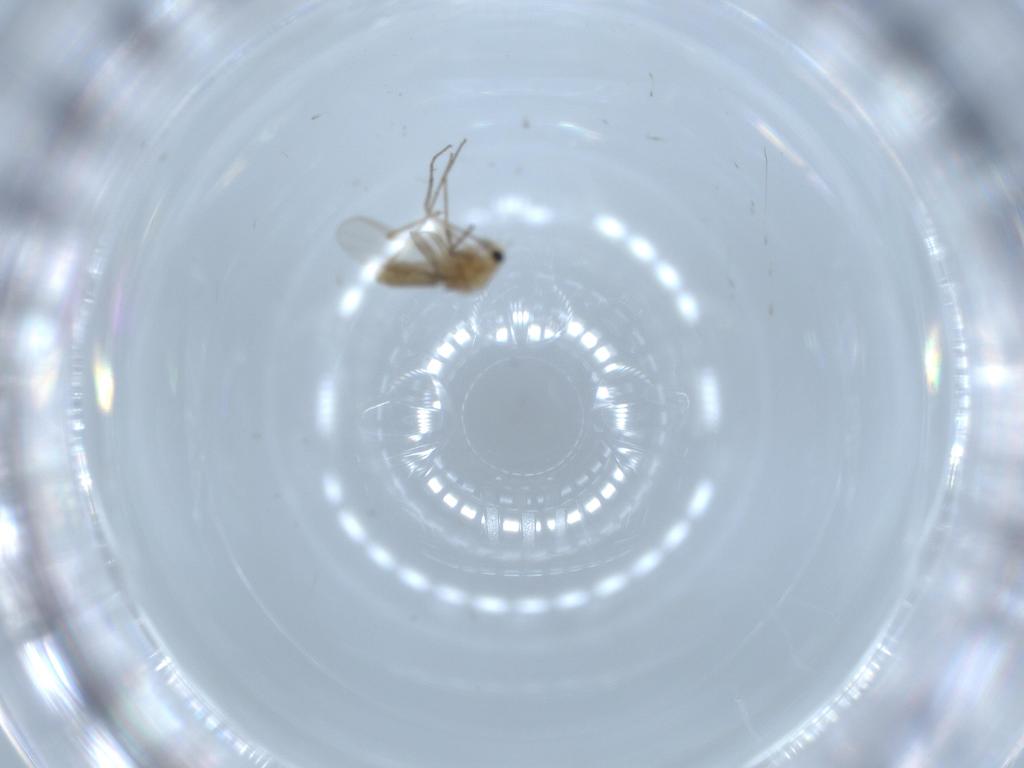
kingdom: Animalia
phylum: Arthropoda
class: Insecta
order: Diptera
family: Chironomidae
